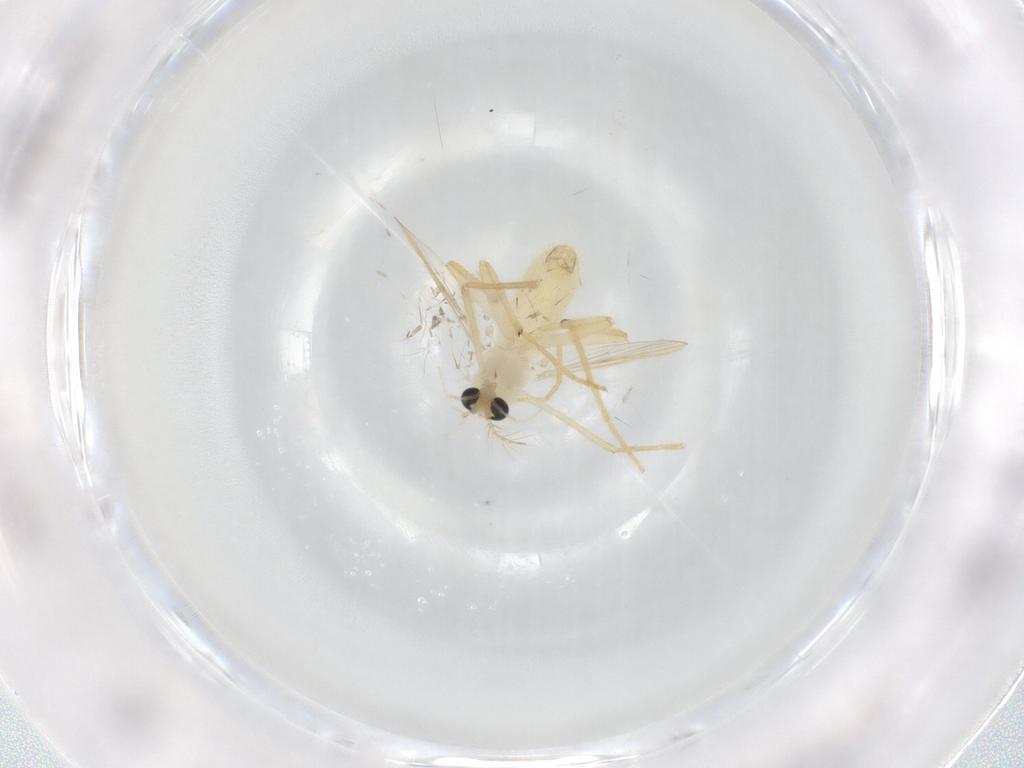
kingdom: Animalia
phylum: Arthropoda
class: Insecta
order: Diptera
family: Chironomidae
